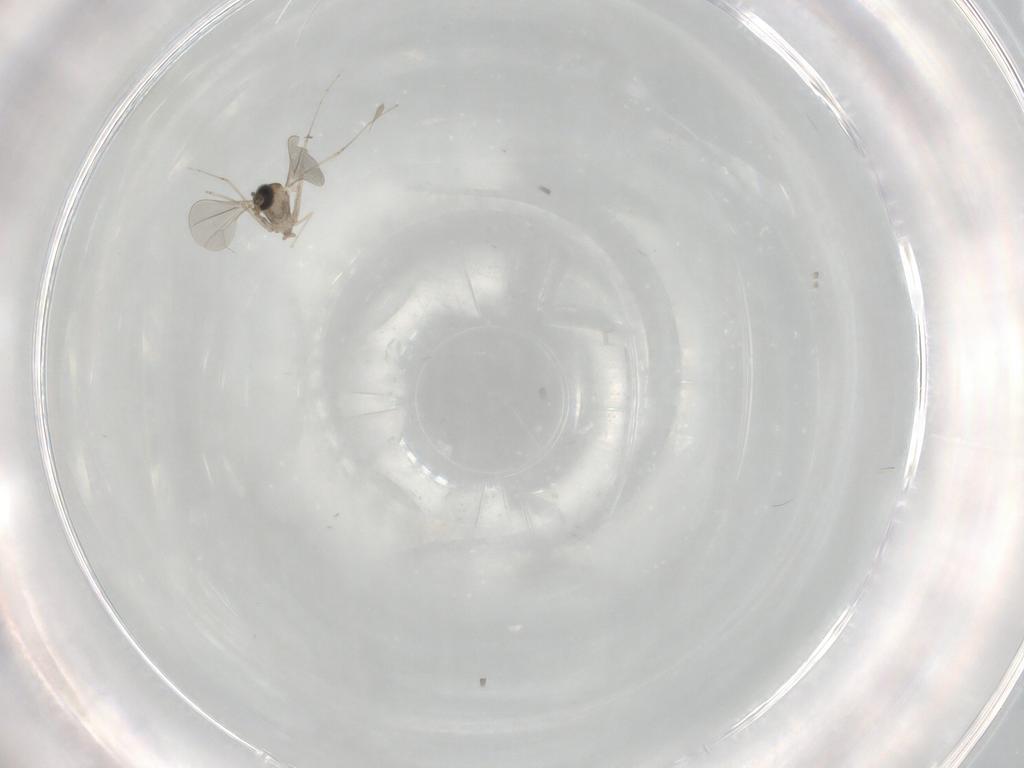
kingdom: Animalia
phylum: Arthropoda
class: Insecta
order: Diptera
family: Cecidomyiidae
